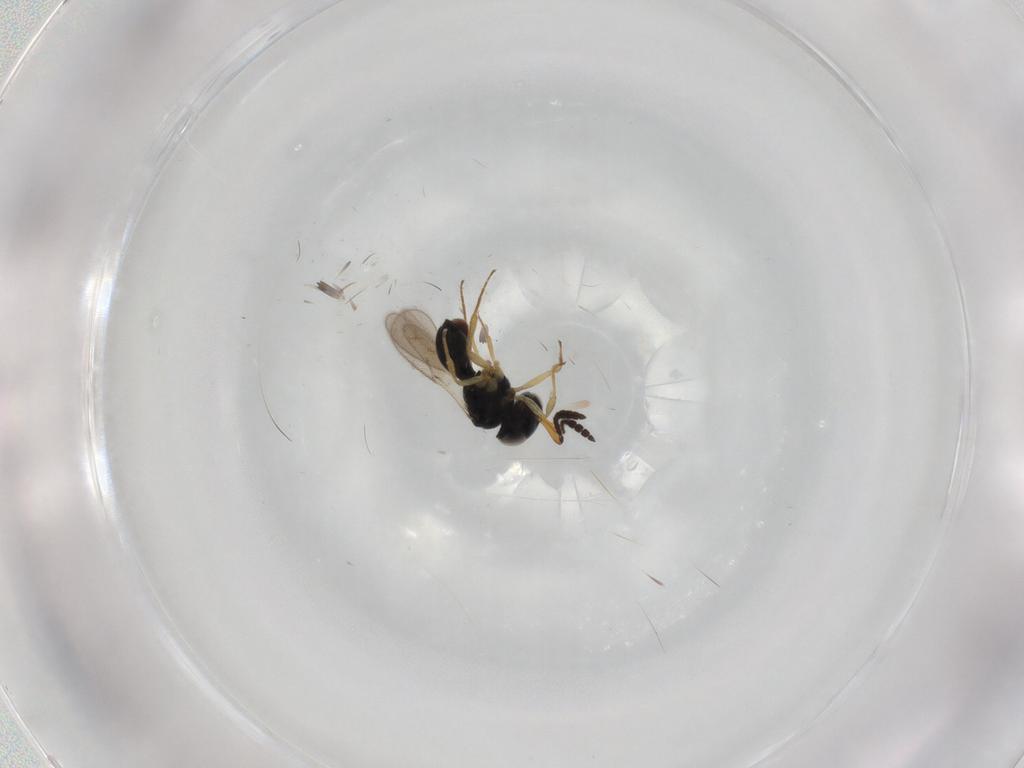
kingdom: Animalia
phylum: Arthropoda
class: Insecta
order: Hymenoptera
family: Scelionidae
